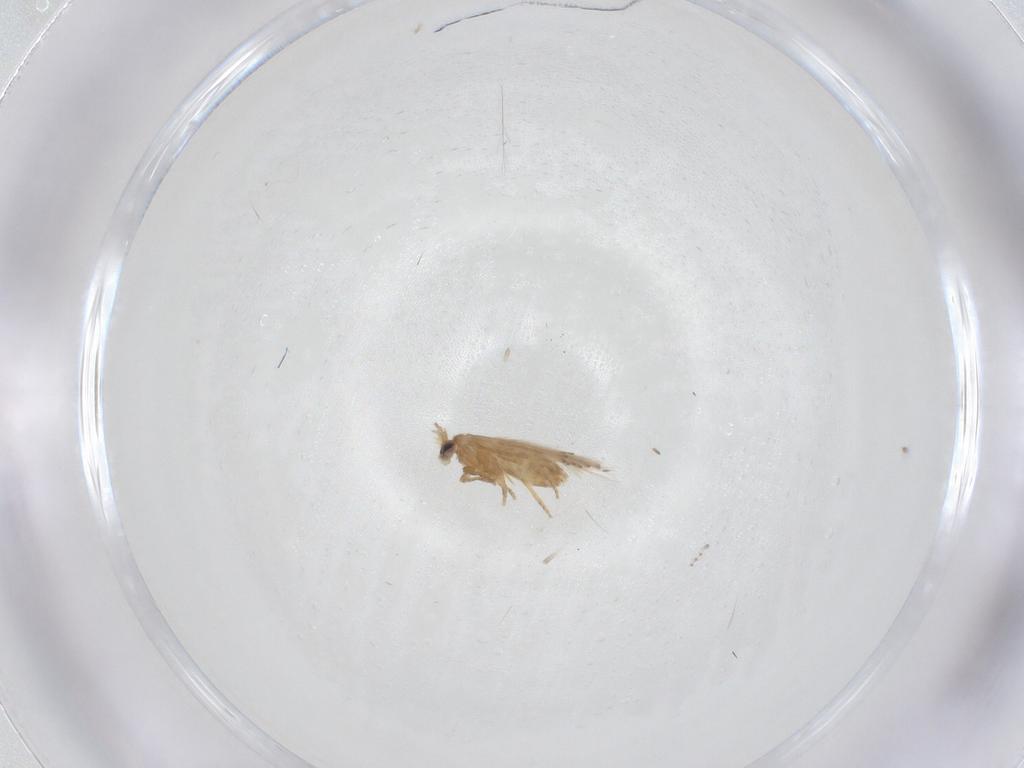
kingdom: Animalia
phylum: Arthropoda
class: Insecta
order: Lepidoptera
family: Nepticulidae
